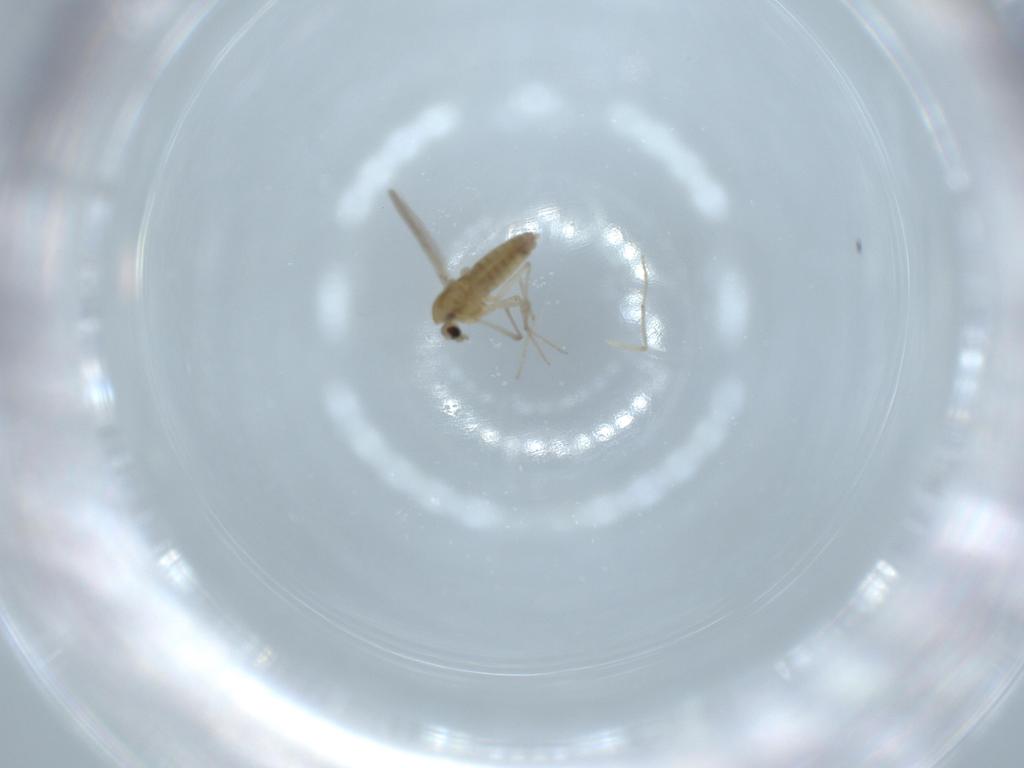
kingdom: Animalia
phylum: Arthropoda
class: Insecta
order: Diptera
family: Chironomidae
